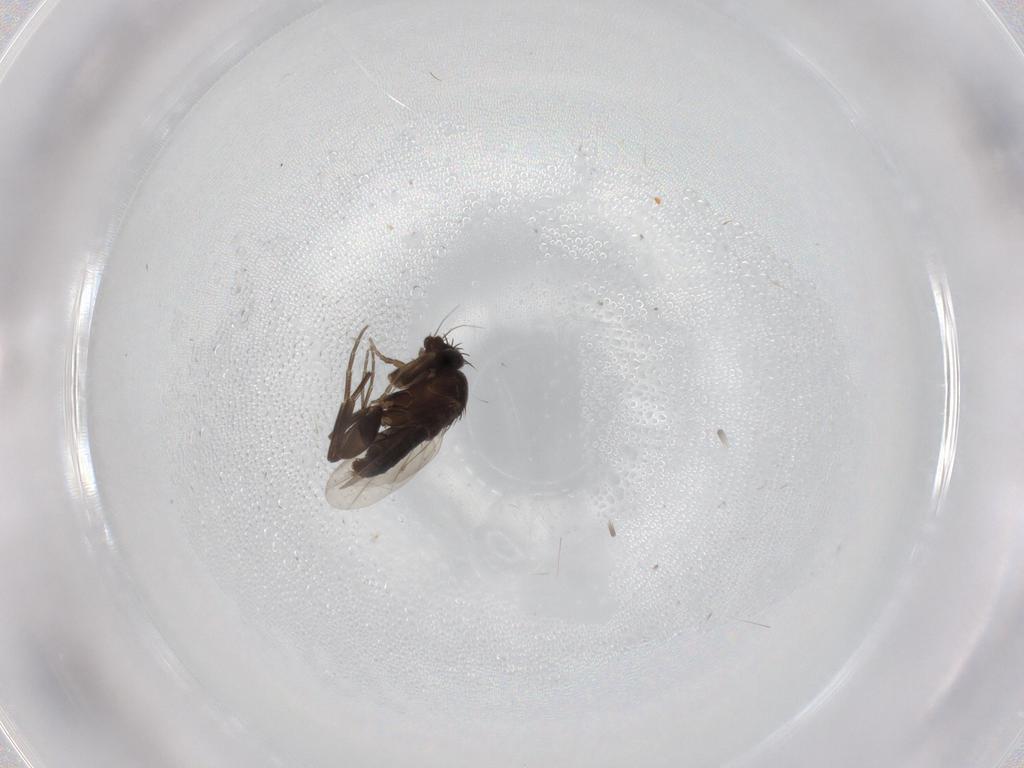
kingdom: Animalia
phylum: Arthropoda
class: Insecta
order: Diptera
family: Phoridae
